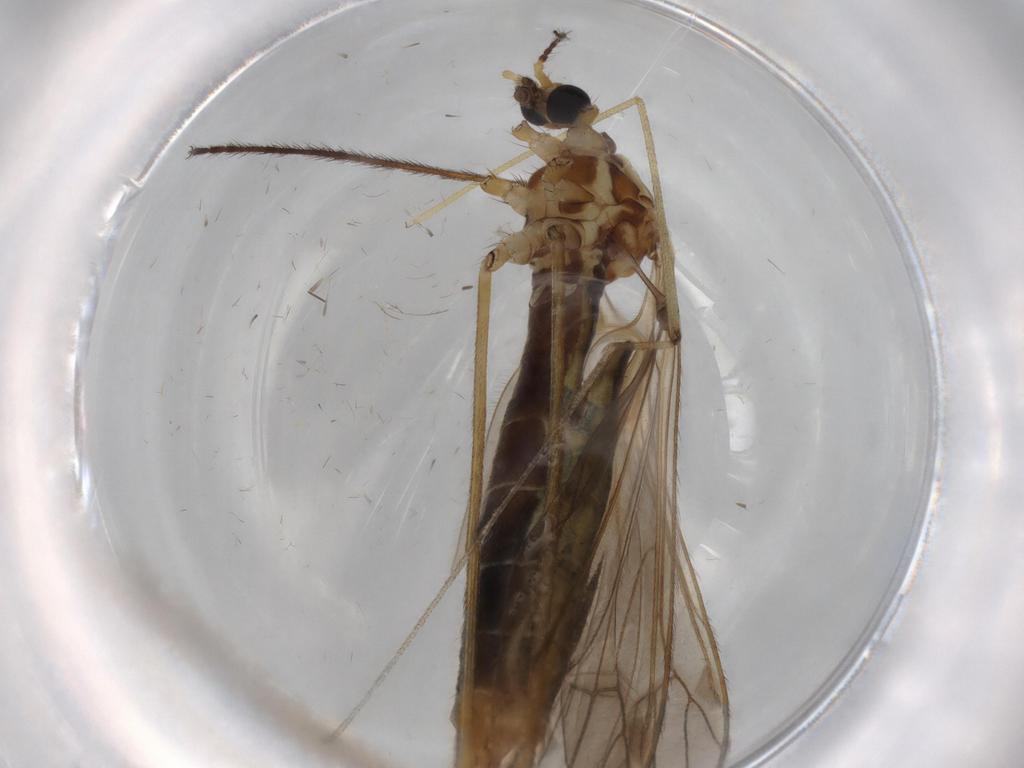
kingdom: Animalia
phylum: Arthropoda
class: Insecta
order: Diptera
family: Limoniidae
